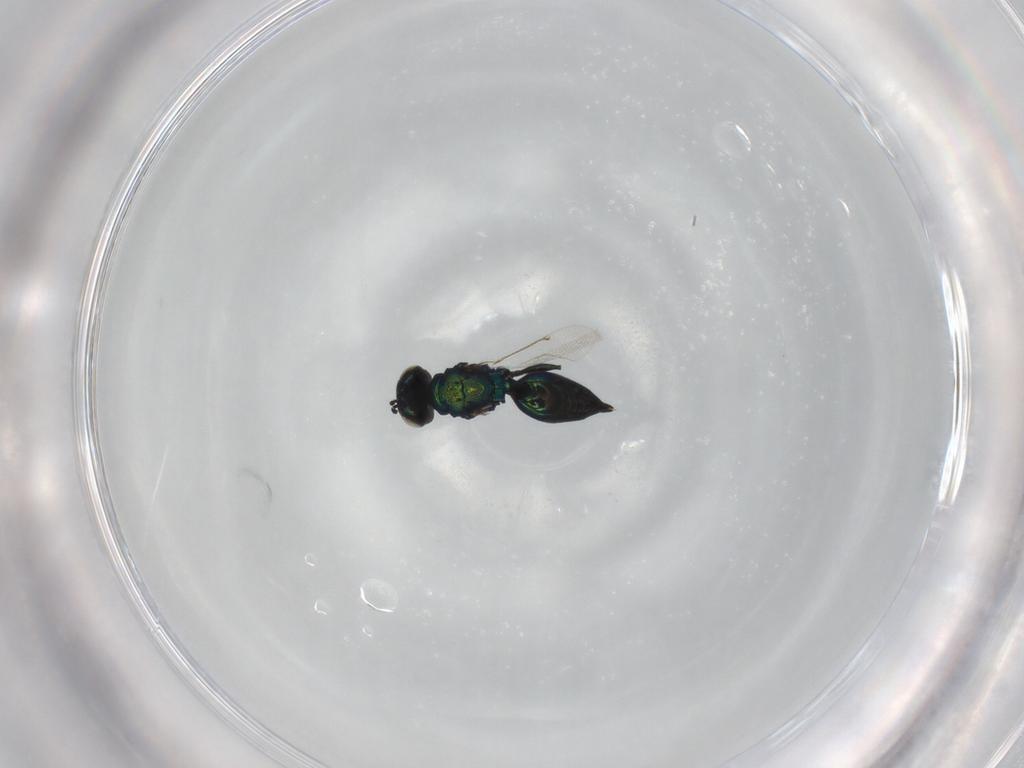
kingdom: Animalia
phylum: Arthropoda
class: Insecta
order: Hymenoptera
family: Eulophidae
